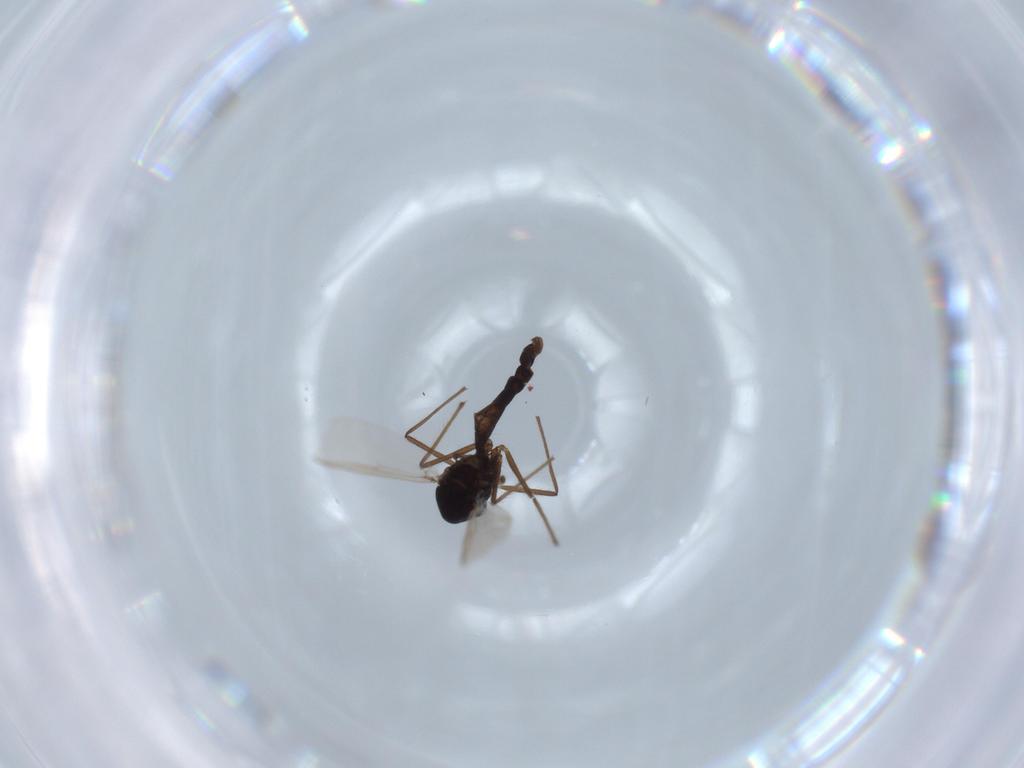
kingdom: Animalia
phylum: Arthropoda
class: Insecta
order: Diptera
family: Chironomidae
